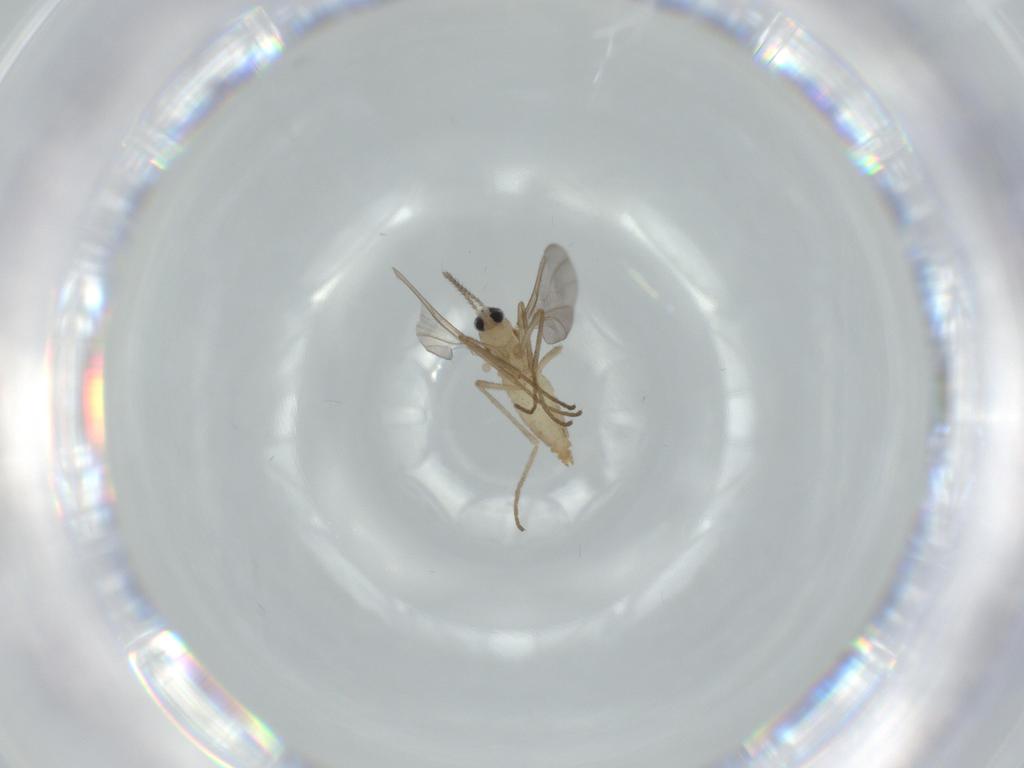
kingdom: Animalia
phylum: Arthropoda
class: Insecta
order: Diptera
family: Cecidomyiidae
